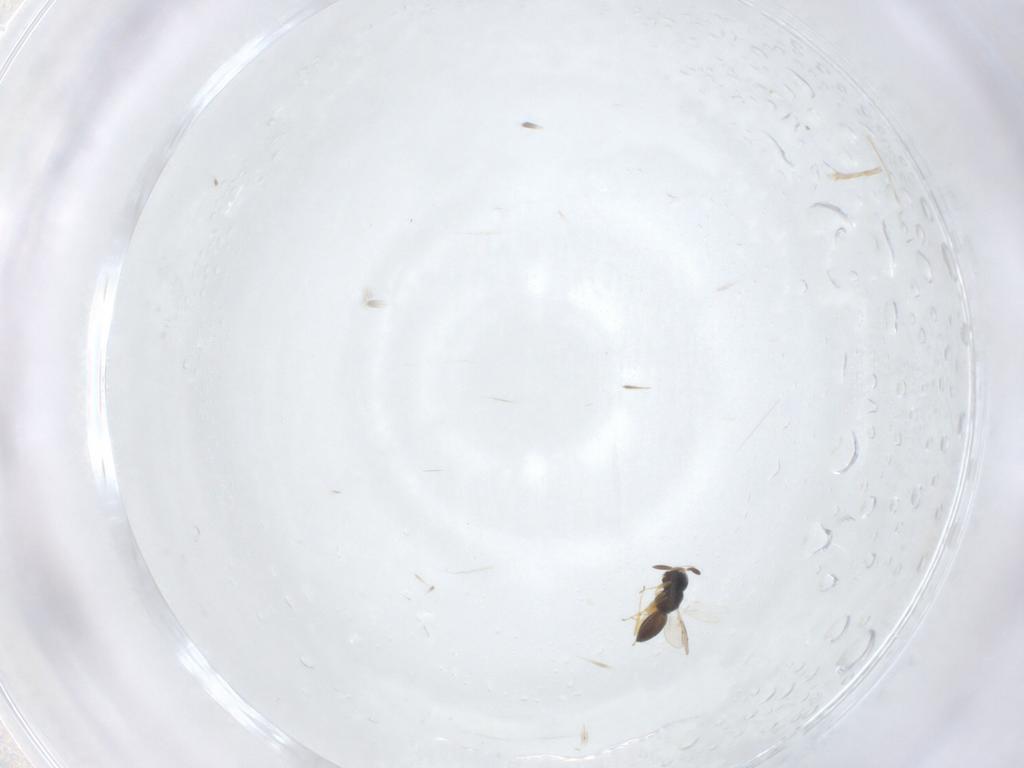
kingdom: Animalia
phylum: Arthropoda
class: Insecta
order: Hymenoptera
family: Scelionidae
